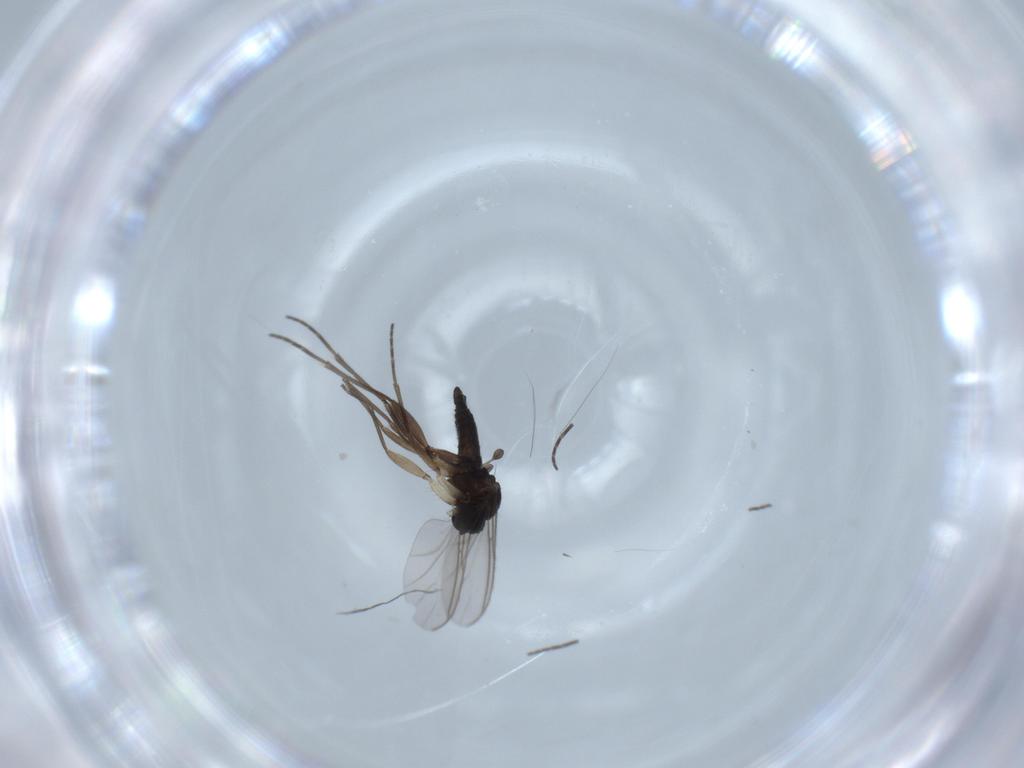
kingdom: Animalia
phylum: Arthropoda
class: Insecta
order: Diptera
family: Sciaridae
